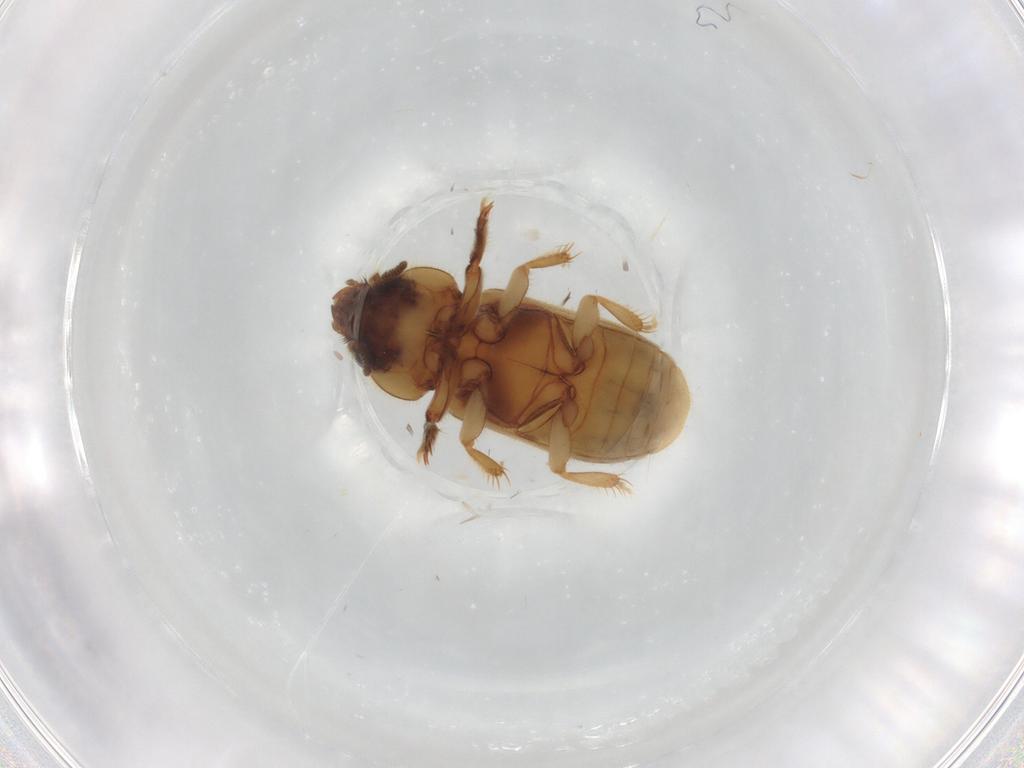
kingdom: Animalia
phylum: Arthropoda
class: Insecta
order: Coleoptera
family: Heteroceridae
